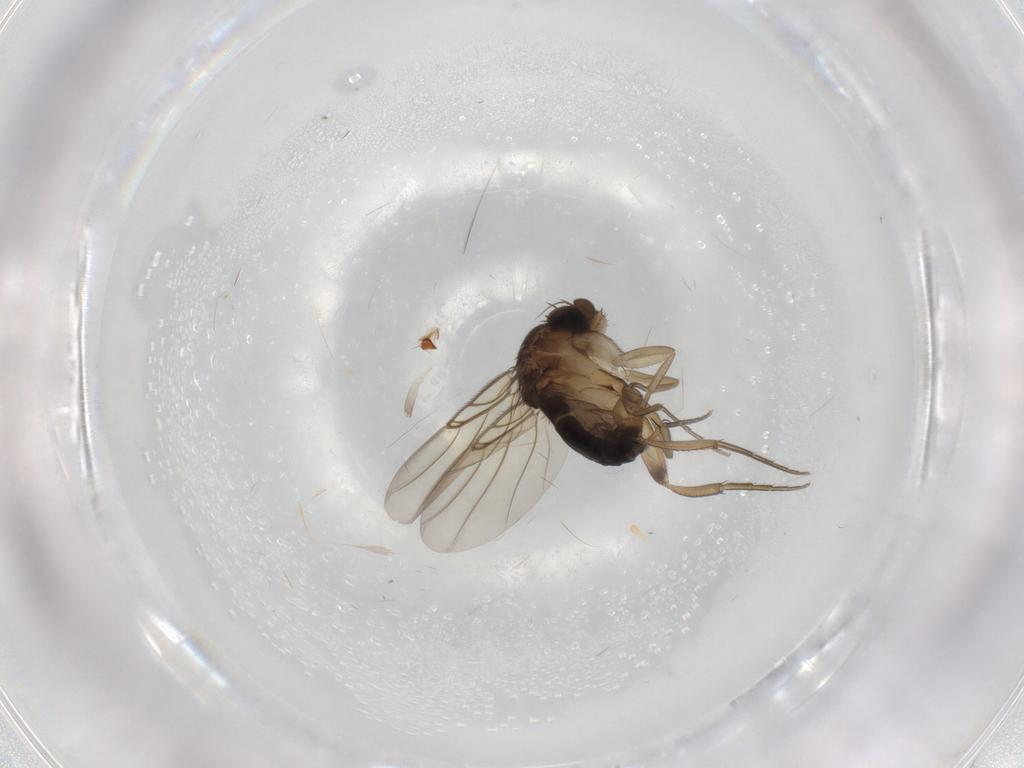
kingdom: Animalia
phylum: Arthropoda
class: Insecta
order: Diptera
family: Phoridae
